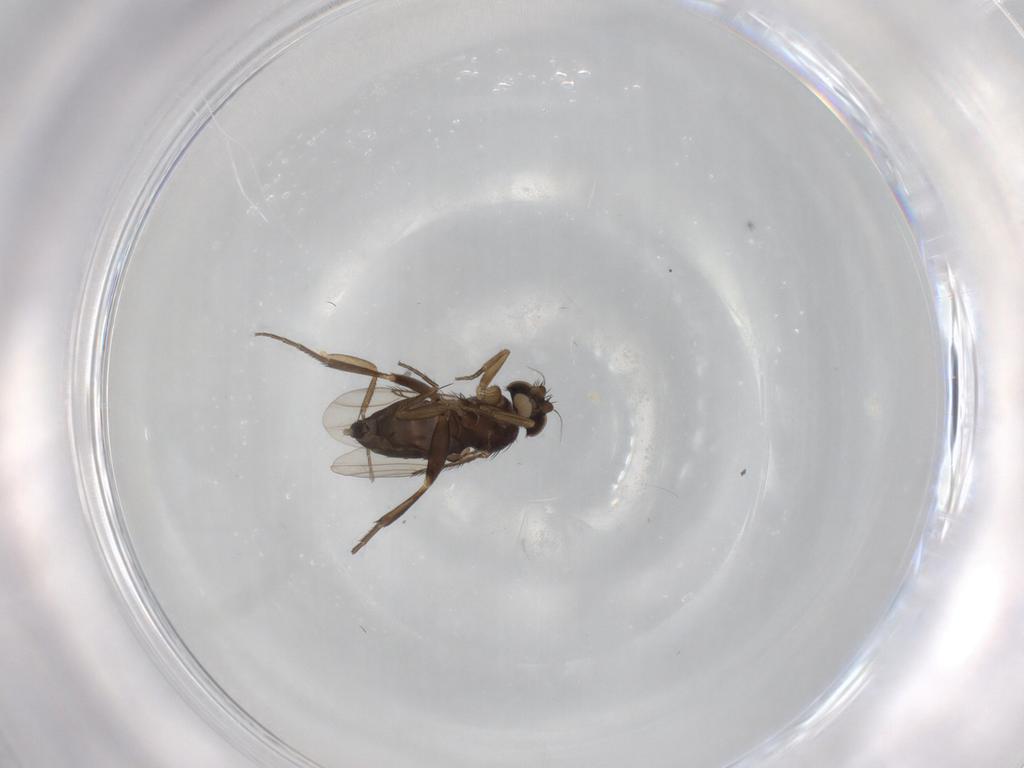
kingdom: Animalia
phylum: Arthropoda
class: Insecta
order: Diptera
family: Phoridae
